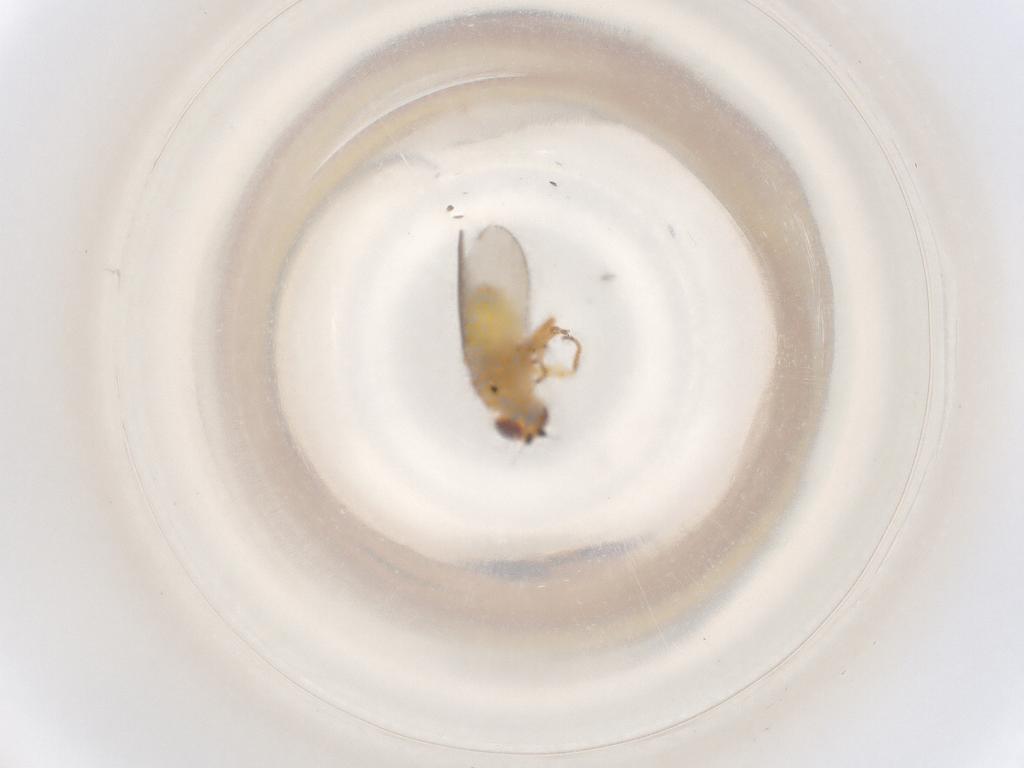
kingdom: Animalia
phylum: Arthropoda
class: Insecta
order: Diptera
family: Chloropidae
